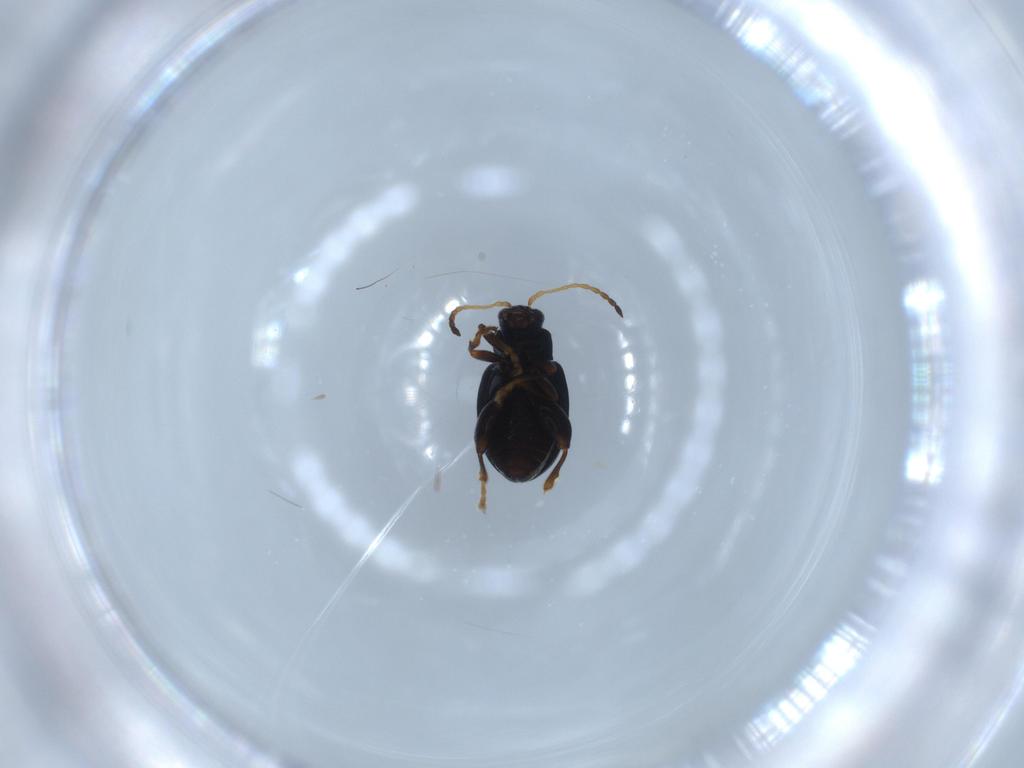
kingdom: Animalia
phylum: Arthropoda
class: Insecta
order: Coleoptera
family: Chrysomelidae
